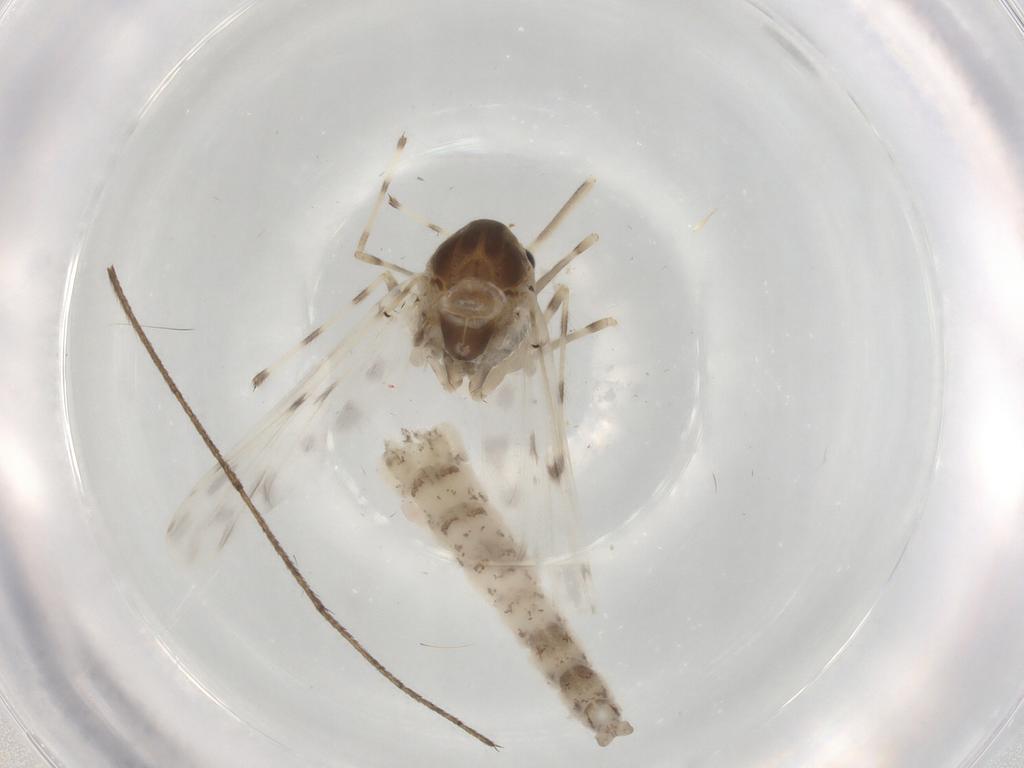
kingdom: Animalia
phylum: Arthropoda
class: Insecta
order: Diptera
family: Chironomidae
